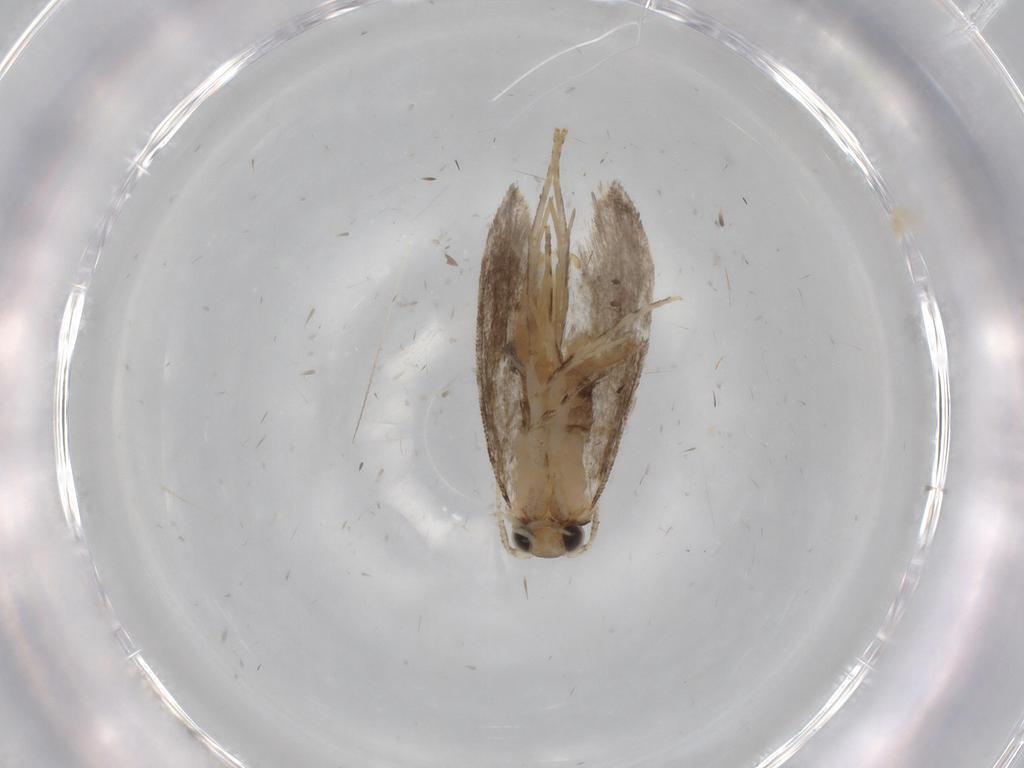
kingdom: Animalia
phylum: Arthropoda
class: Insecta
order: Lepidoptera
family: Tineidae
